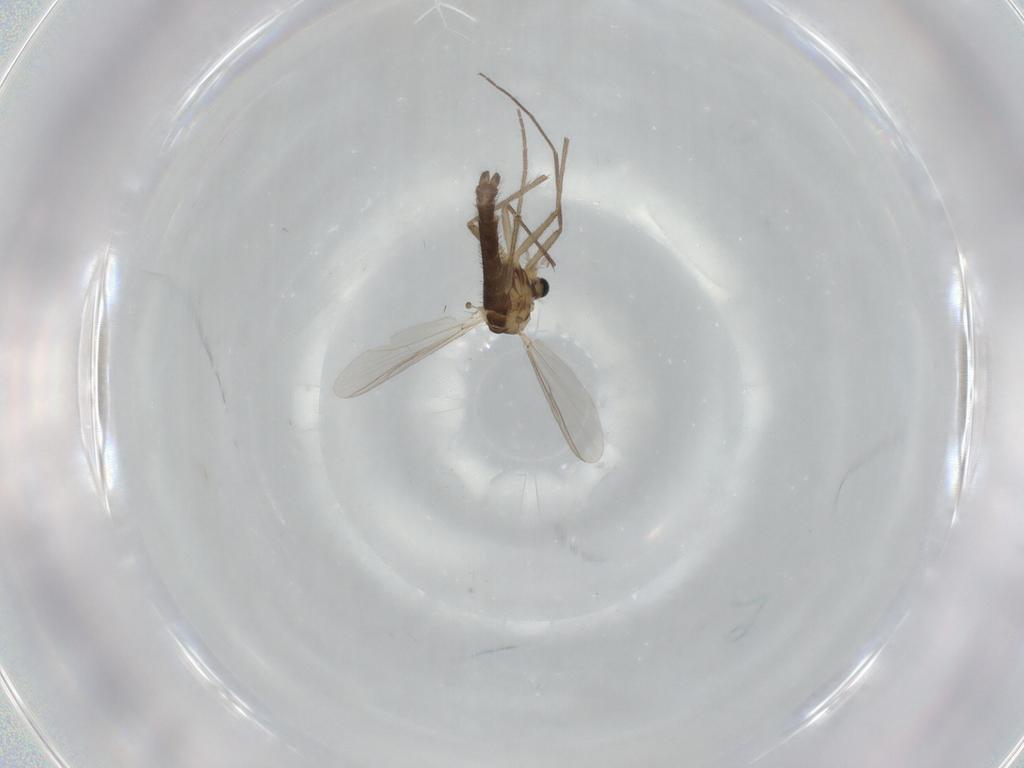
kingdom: Animalia
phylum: Arthropoda
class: Insecta
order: Diptera
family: Chironomidae
